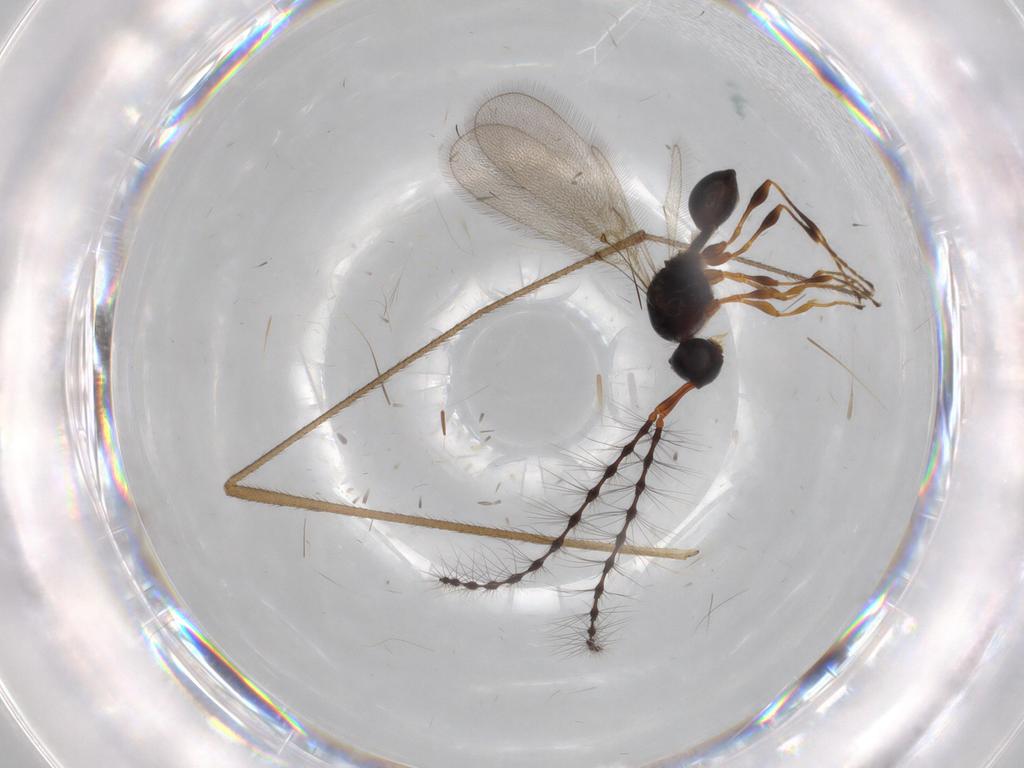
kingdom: Animalia
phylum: Arthropoda
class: Insecta
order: Hymenoptera
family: Diapriidae
